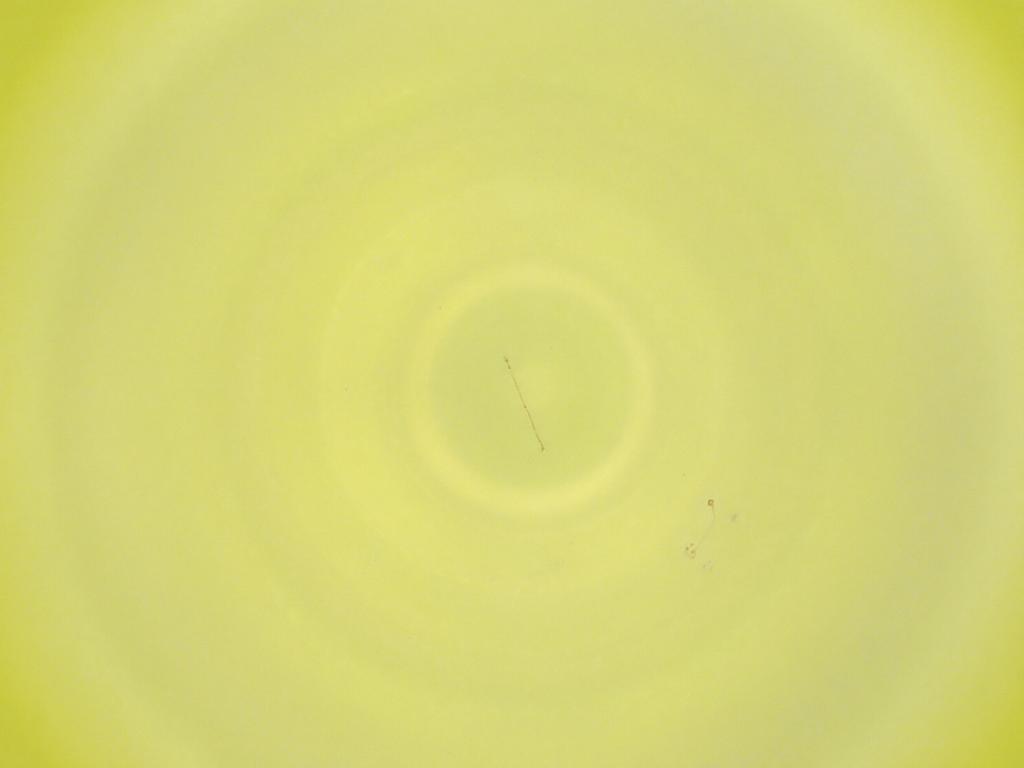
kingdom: Animalia
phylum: Arthropoda
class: Insecta
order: Diptera
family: Cecidomyiidae
